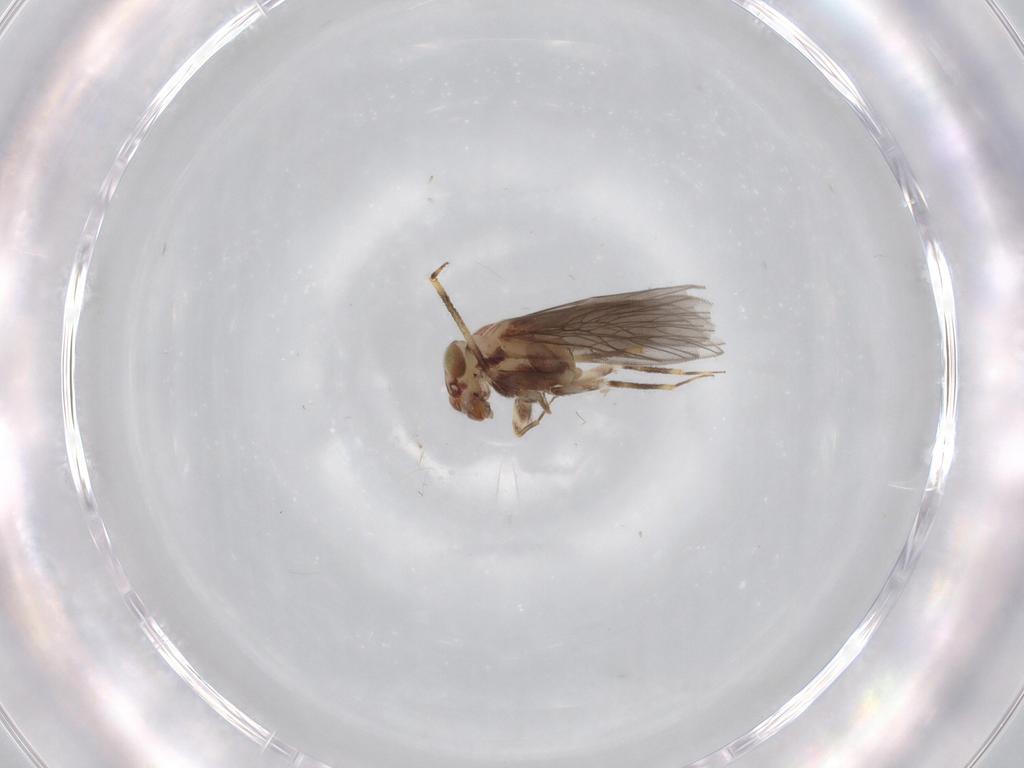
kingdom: Animalia
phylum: Arthropoda
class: Insecta
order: Psocodea
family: Lepidopsocidae
